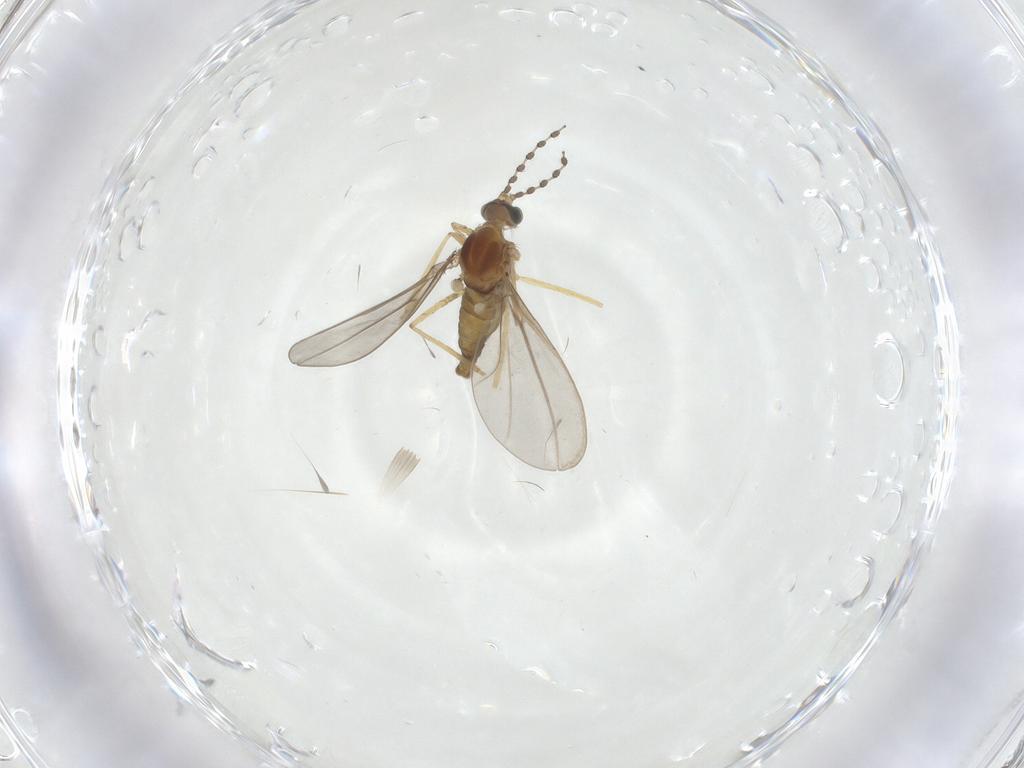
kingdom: Animalia
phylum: Arthropoda
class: Insecta
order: Diptera
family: Cecidomyiidae
